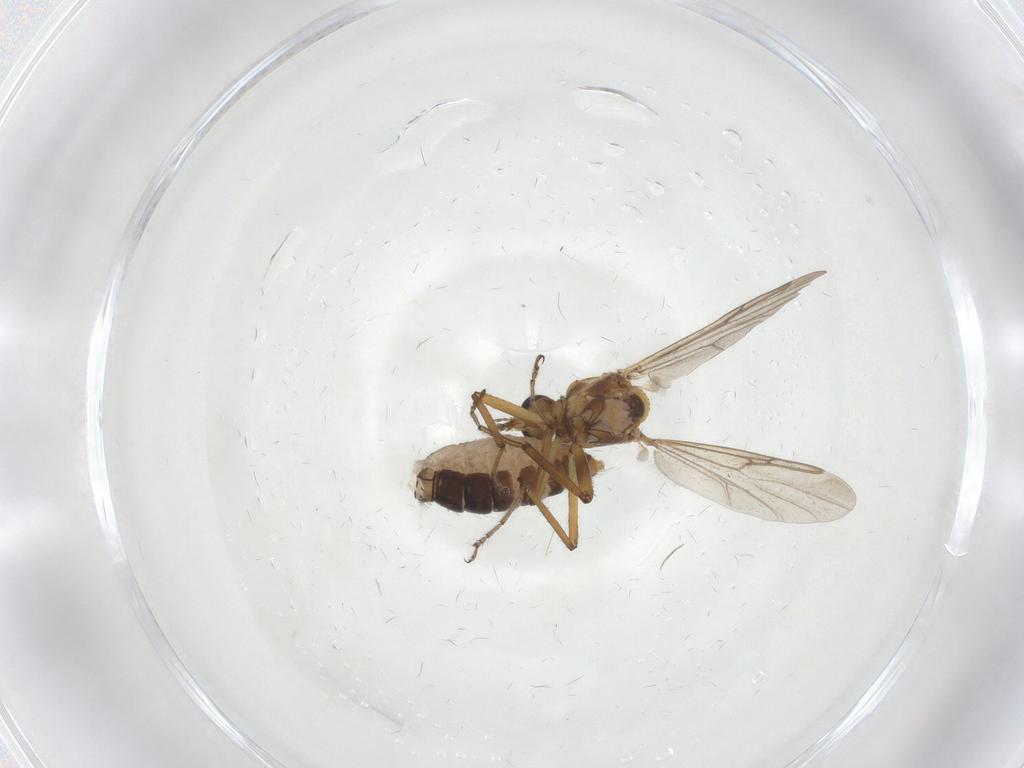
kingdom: Animalia
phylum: Arthropoda
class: Insecta
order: Diptera
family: Ceratopogonidae
